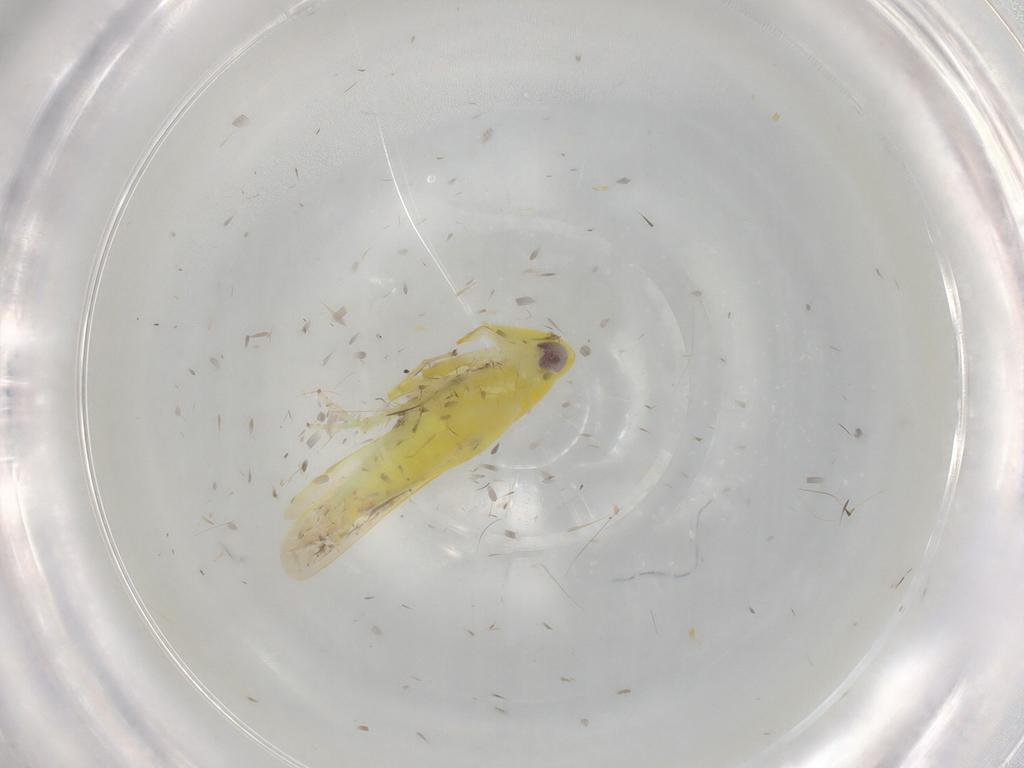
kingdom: Animalia
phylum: Arthropoda
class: Insecta
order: Hemiptera
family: Cicadellidae
